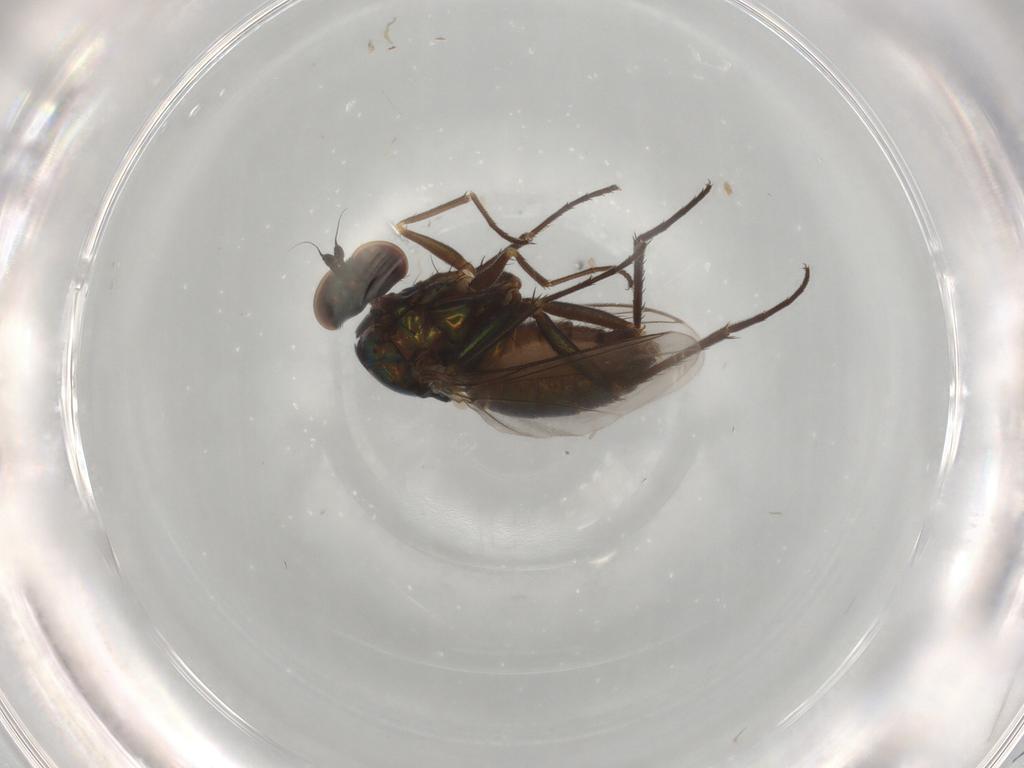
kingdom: Animalia
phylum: Arthropoda
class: Insecta
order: Diptera
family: Dolichopodidae
